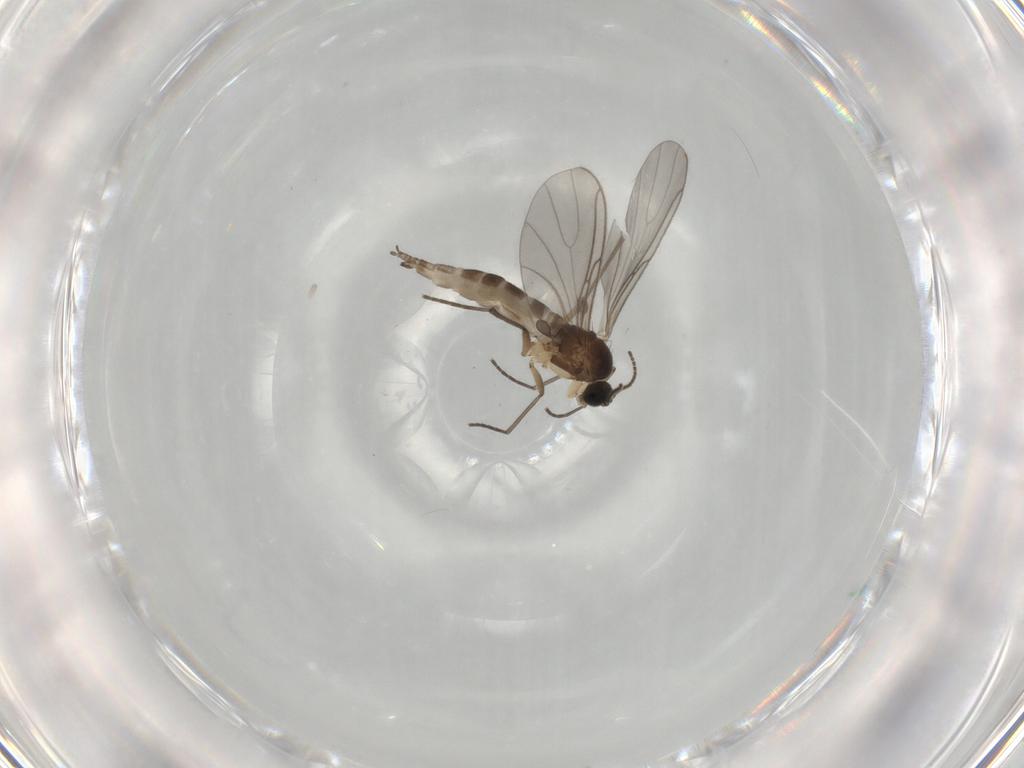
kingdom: Animalia
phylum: Arthropoda
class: Insecta
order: Diptera
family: Sciaridae
